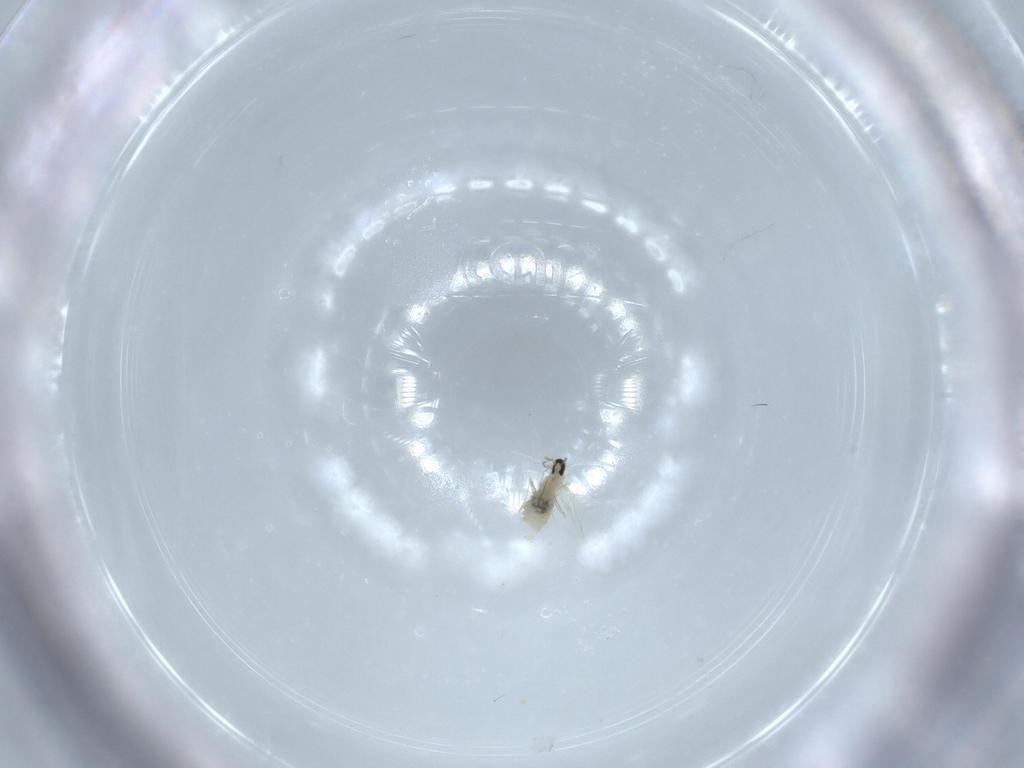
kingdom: Animalia
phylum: Arthropoda
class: Insecta
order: Diptera
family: Cecidomyiidae
